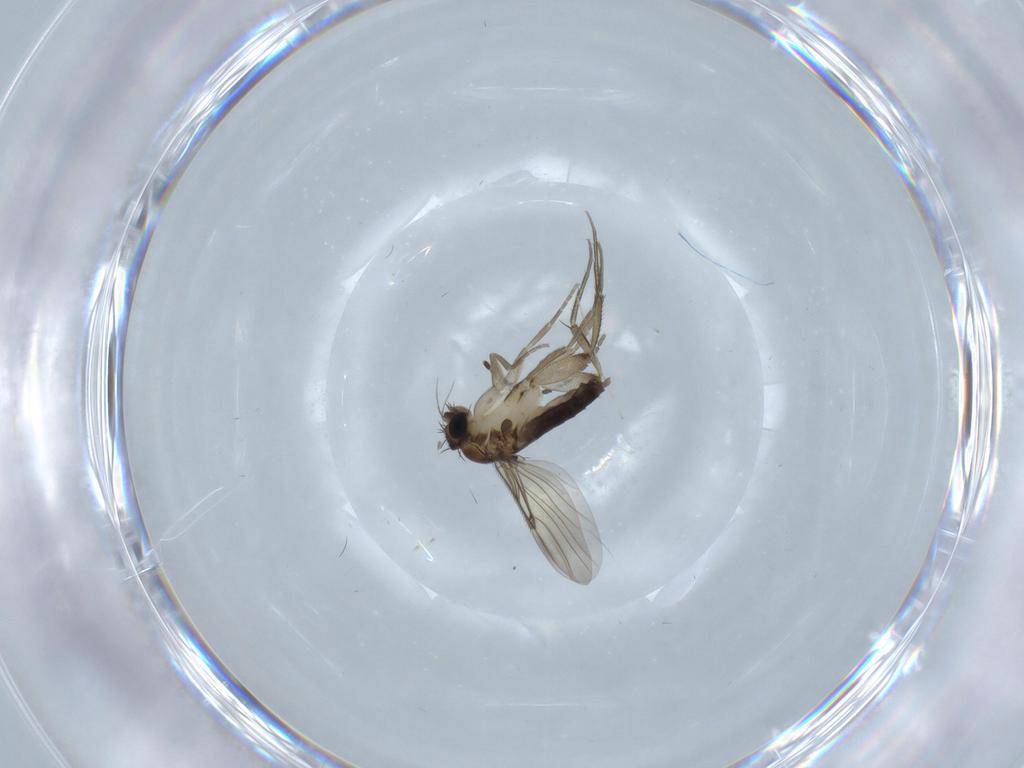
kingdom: Animalia
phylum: Arthropoda
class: Insecta
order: Diptera
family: Phoridae
